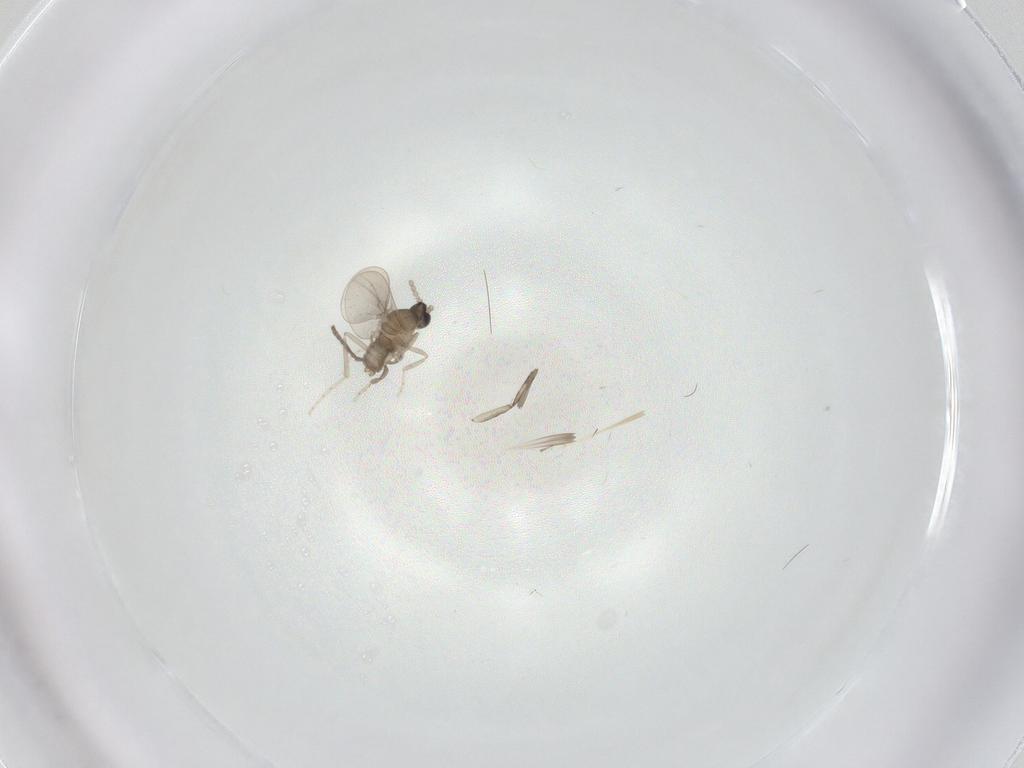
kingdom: Animalia
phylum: Arthropoda
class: Insecta
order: Diptera
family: Cecidomyiidae
